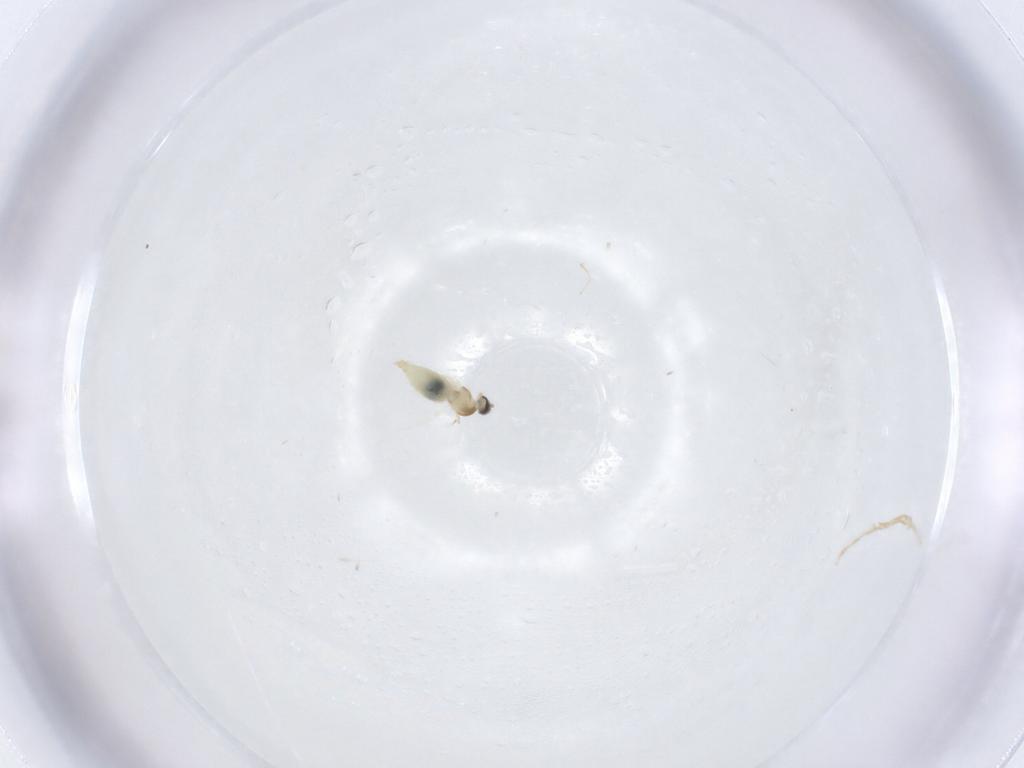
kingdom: Animalia
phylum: Arthropoda
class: Insecta
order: Diptera
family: Cecidomyiidae
